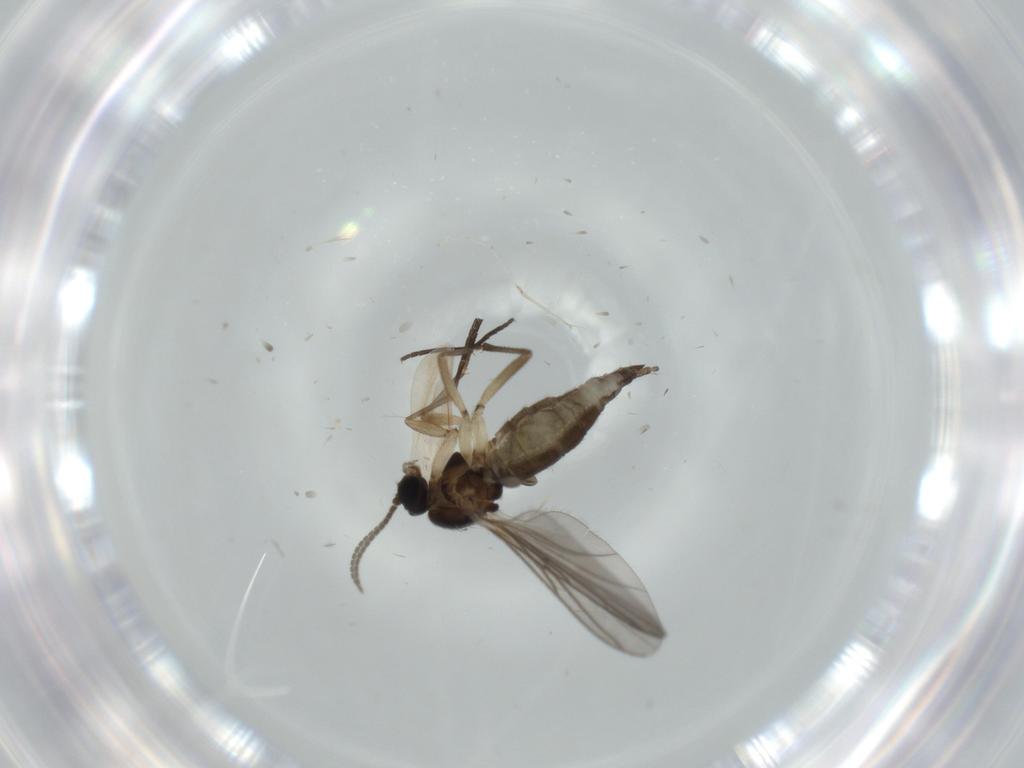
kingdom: Animalia
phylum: Arthropoda
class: Insecta
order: Diptera
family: Sciaridae
